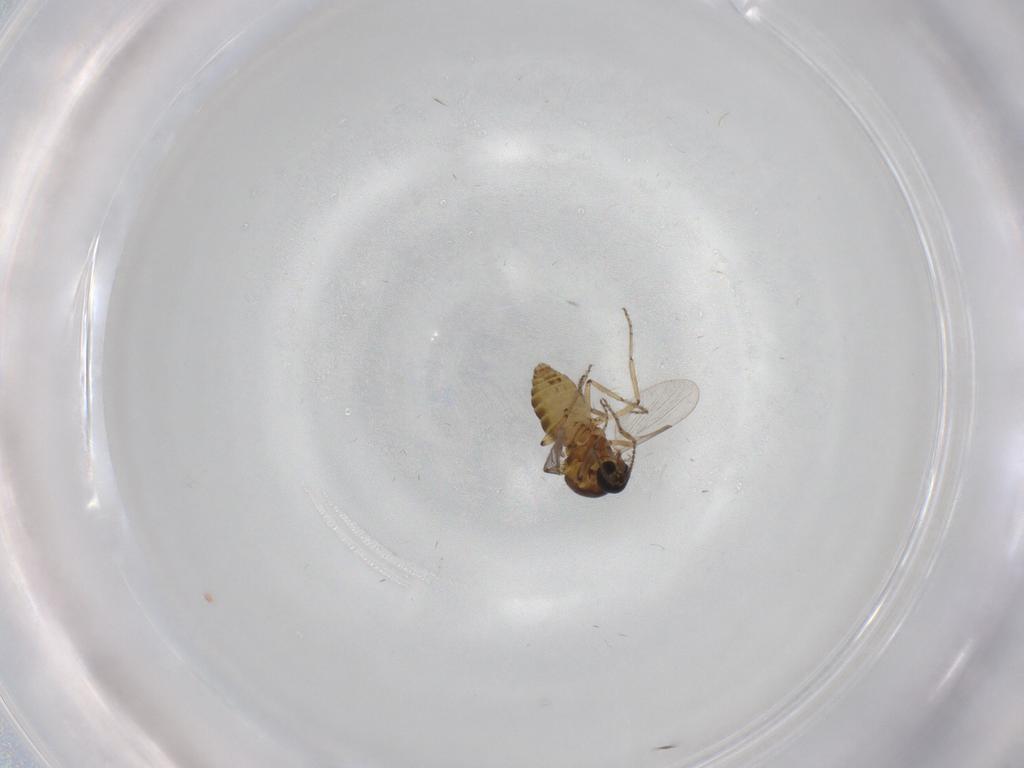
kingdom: Animalia
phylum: Arthropoda
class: Insecta
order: Diptera
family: Ceratopogonidae
